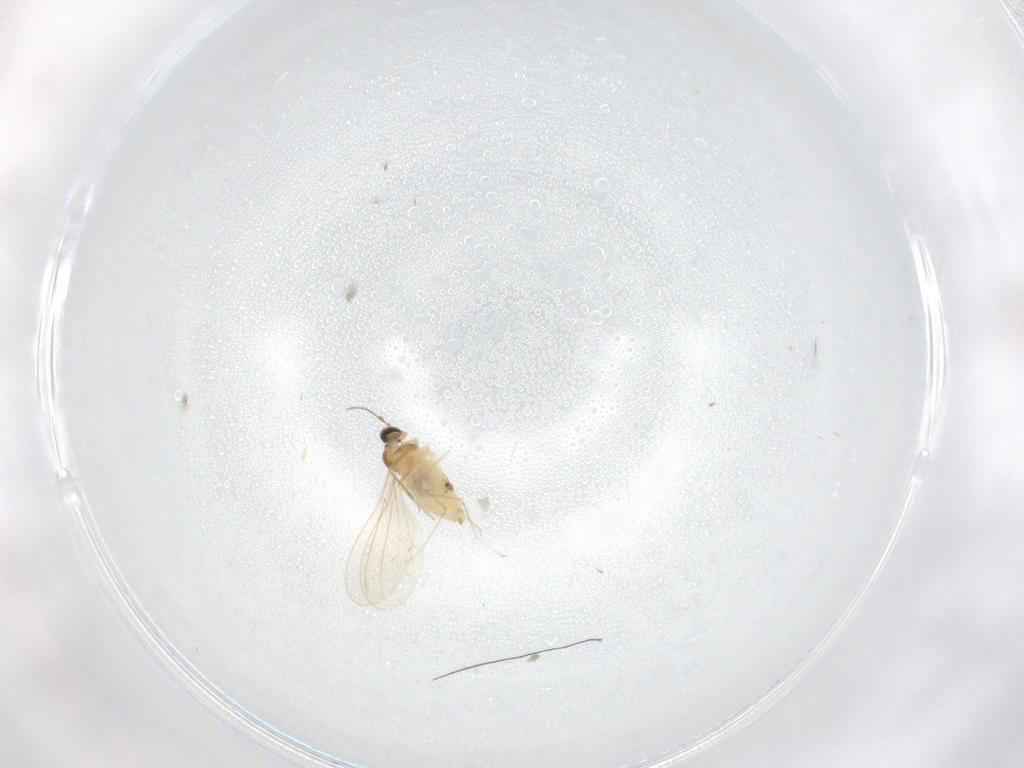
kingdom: Animalia
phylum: Arthropoda
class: Insecta
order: Diptera
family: Cecidomyiidae
